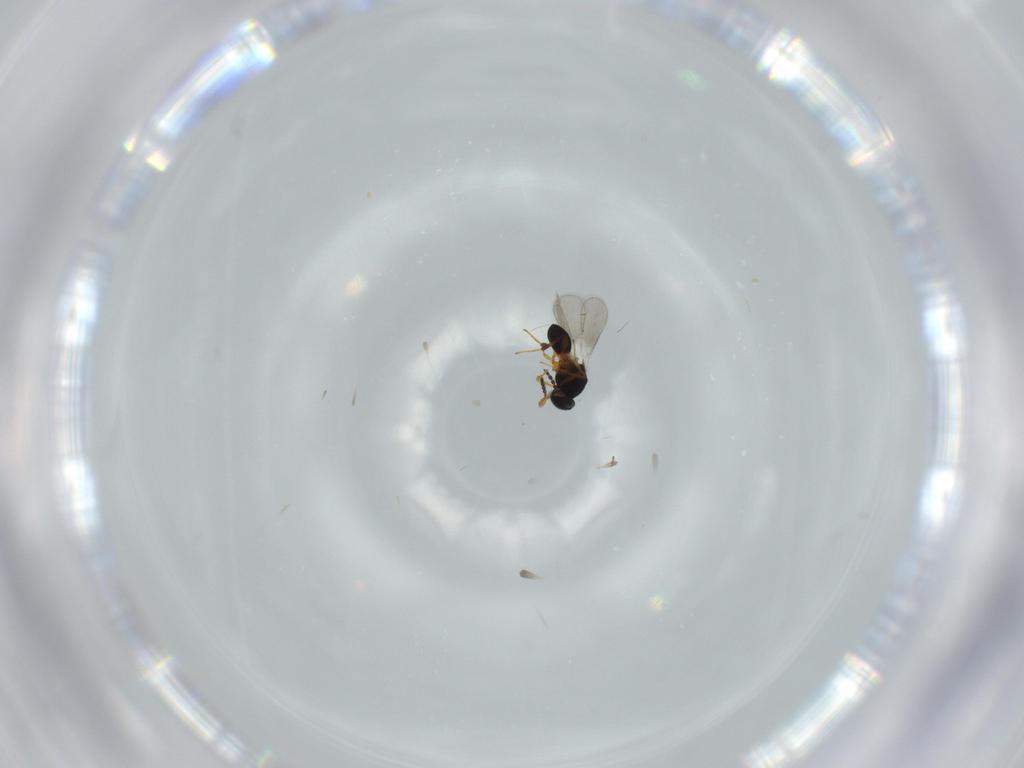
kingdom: Animalia
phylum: Arthropoda
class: Insecta
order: Hymenoptera
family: Platygastridae
